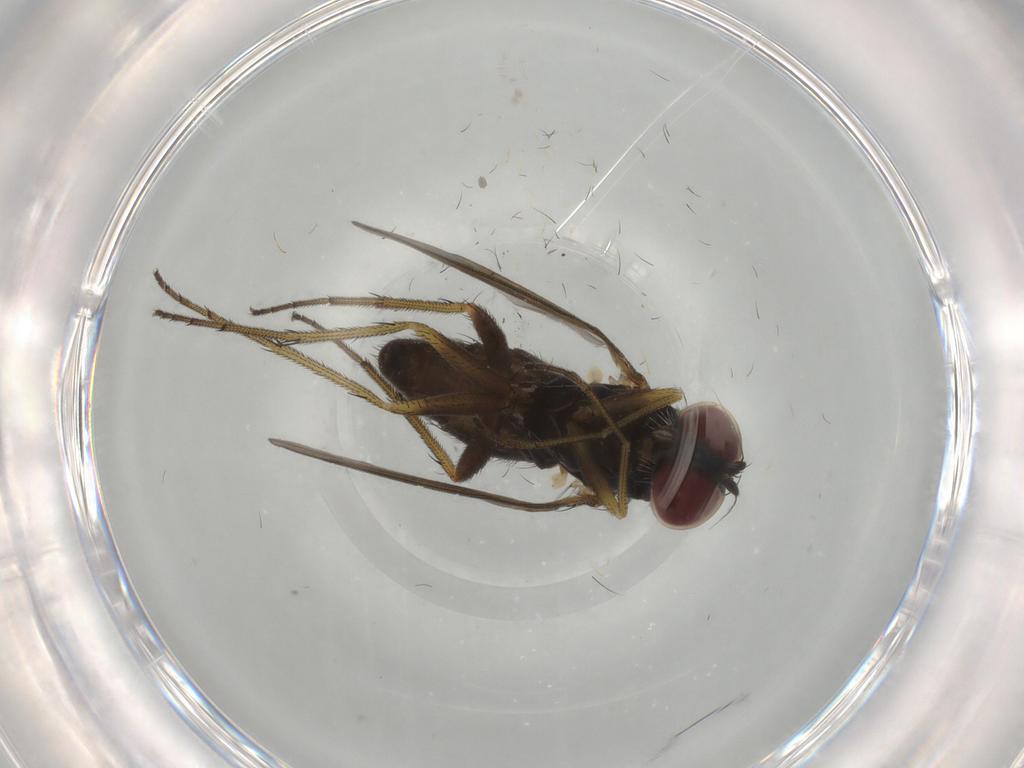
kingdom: Animalia
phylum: Arthropoda
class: Insecta
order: Diptera
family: Dolichopodidae
